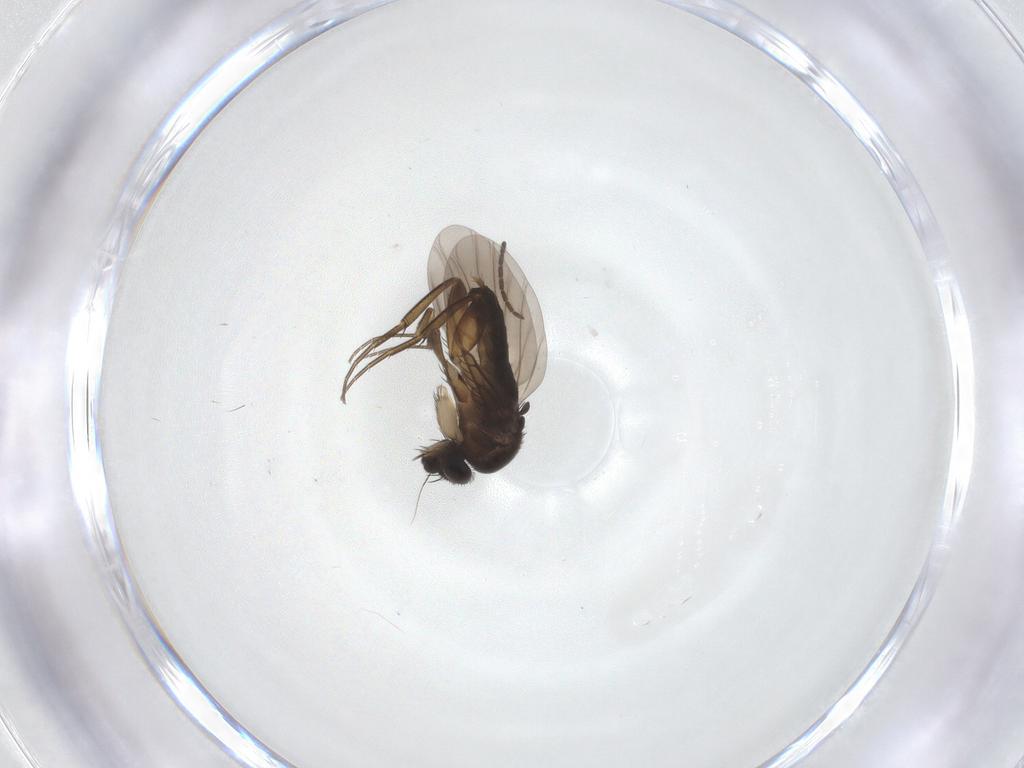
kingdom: Animalia
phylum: Arthropoda
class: Insecta
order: Diptera
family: Phoridae
